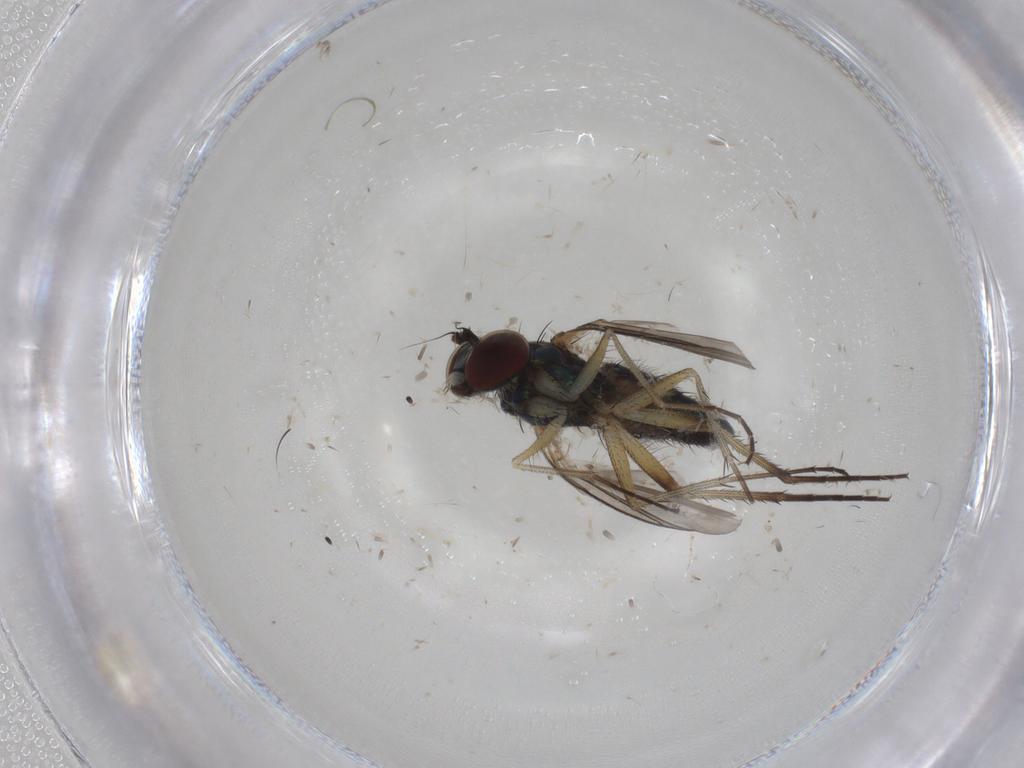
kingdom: Animalia
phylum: Arthropoda
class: Insecta
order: Diptera
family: Dolichopodidae
